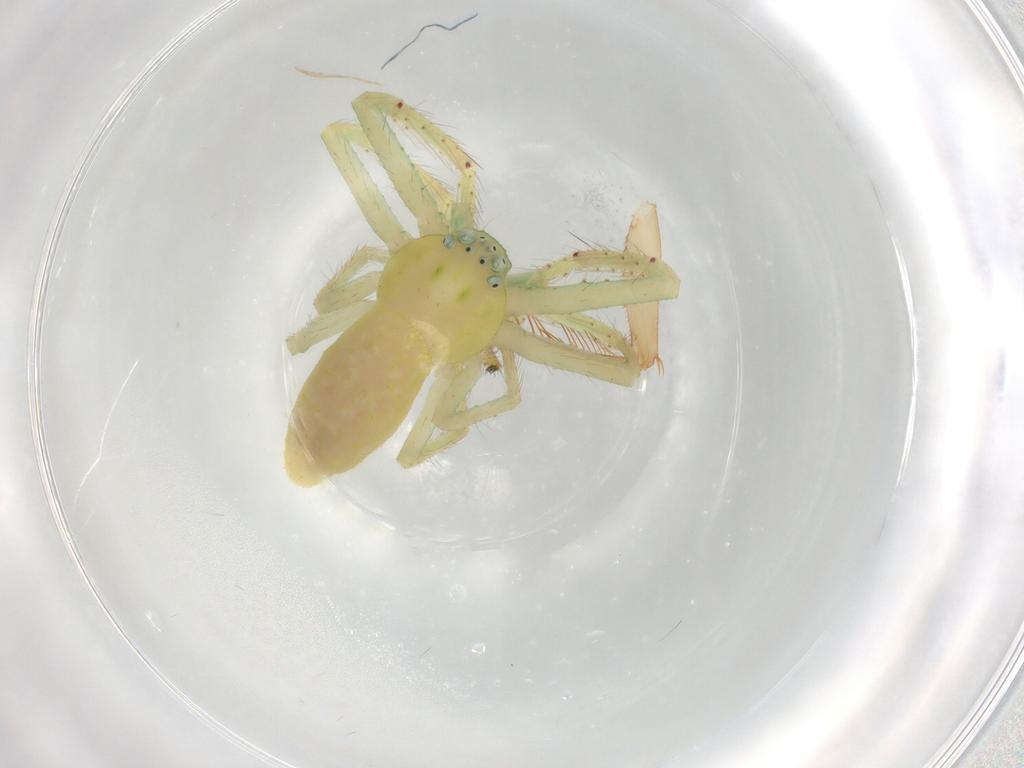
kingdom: Animalia
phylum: Arthropoda
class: Arachnida
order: Araneae
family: Thomisidae
